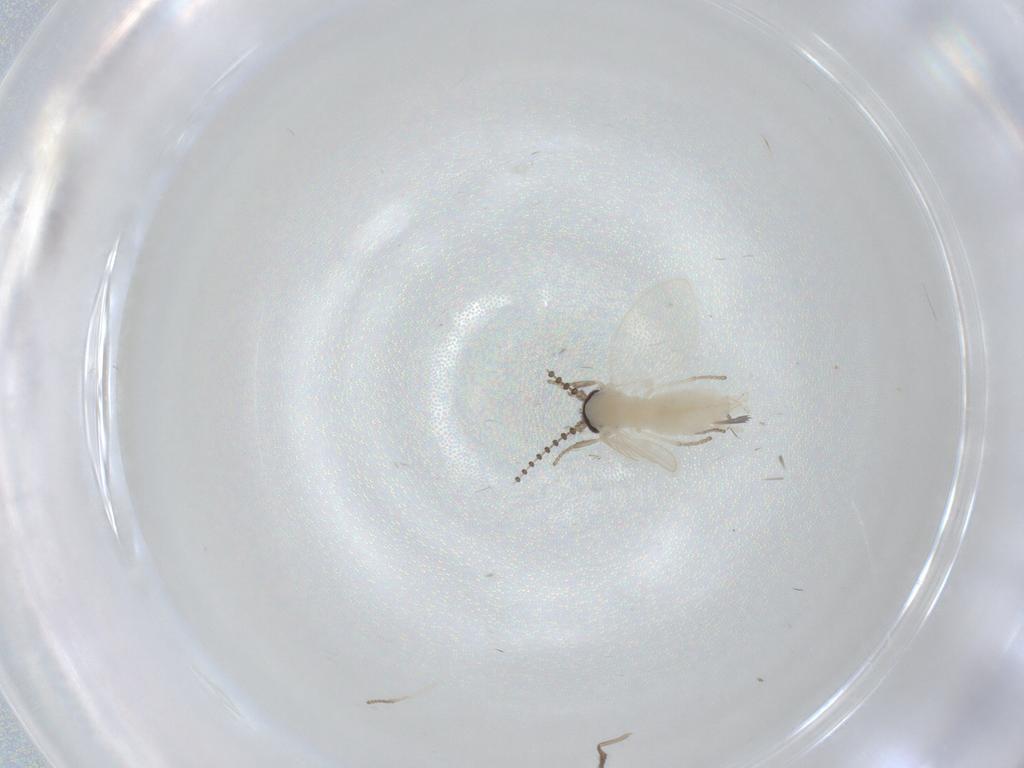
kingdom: Animalia
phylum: Arthropoda
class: Insecta
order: Diptera
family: Psychodidae
